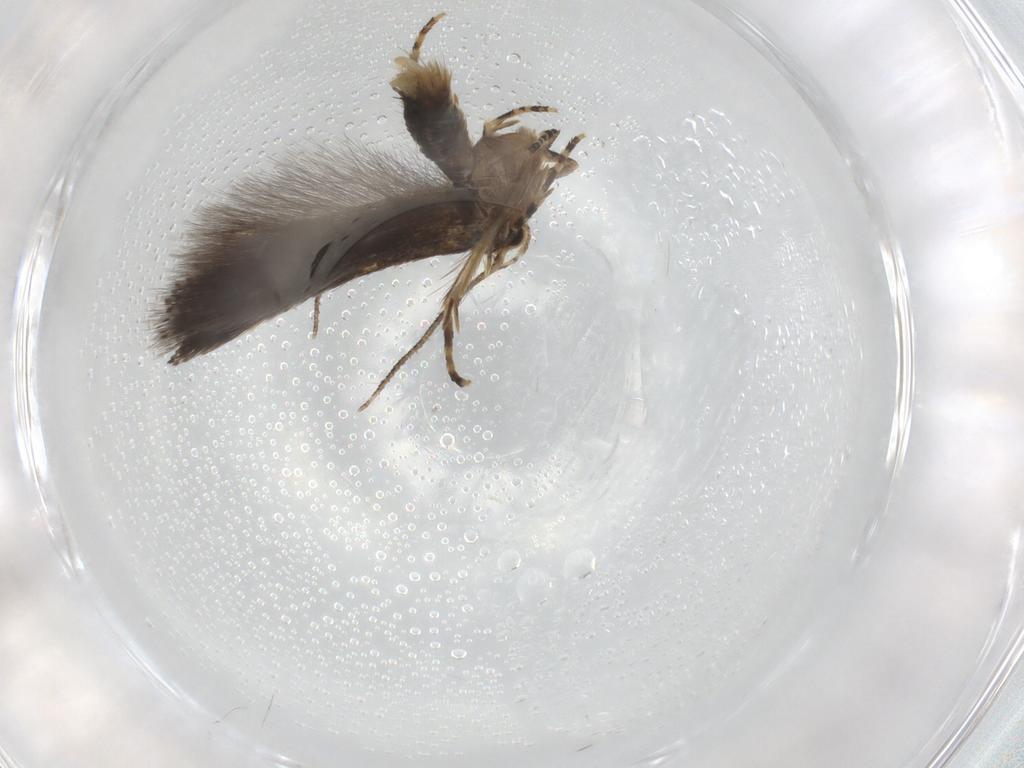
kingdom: Animalia
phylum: Arthropoda
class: Insecta
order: Lepidoptera
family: Elachistidae
